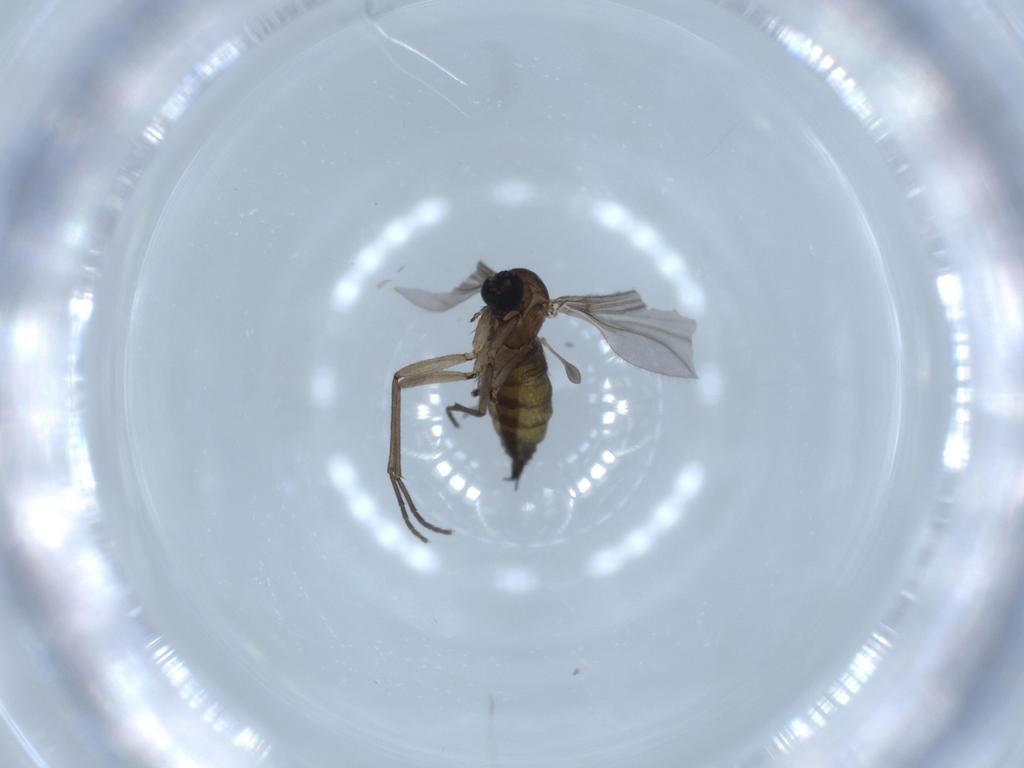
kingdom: Animalia
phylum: Arthropoda
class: Insecta
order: Diptera
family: Sciaridae
